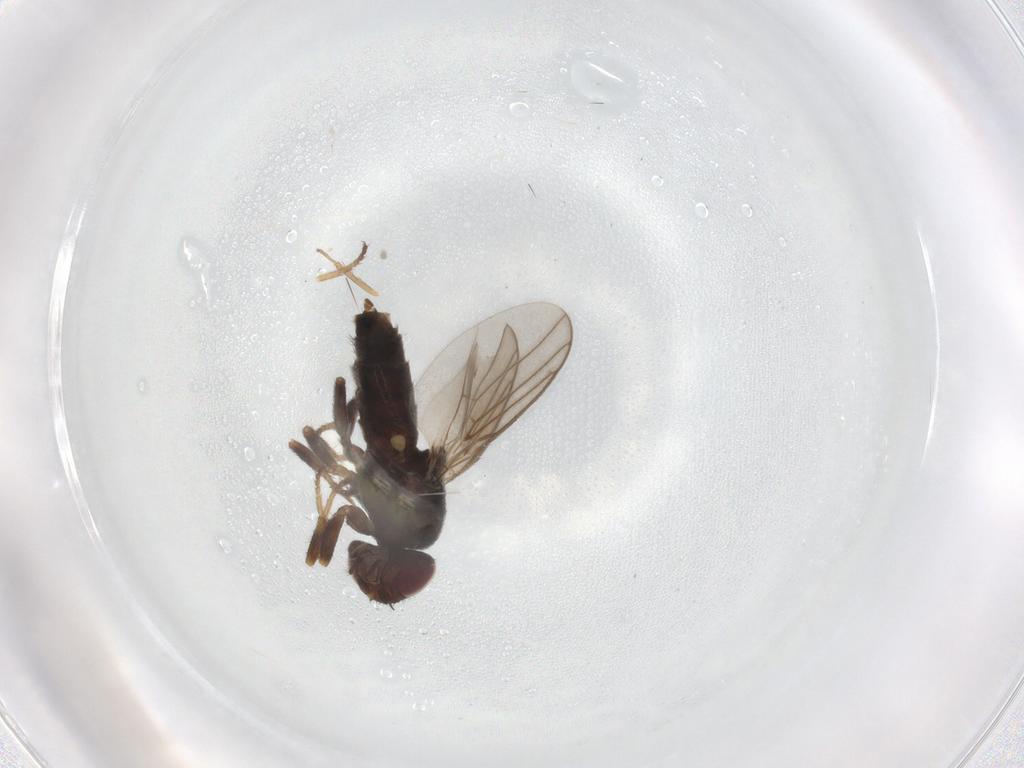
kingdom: Animalia
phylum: Arthropoda
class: Insecta
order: Diptera
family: Chloropidae
